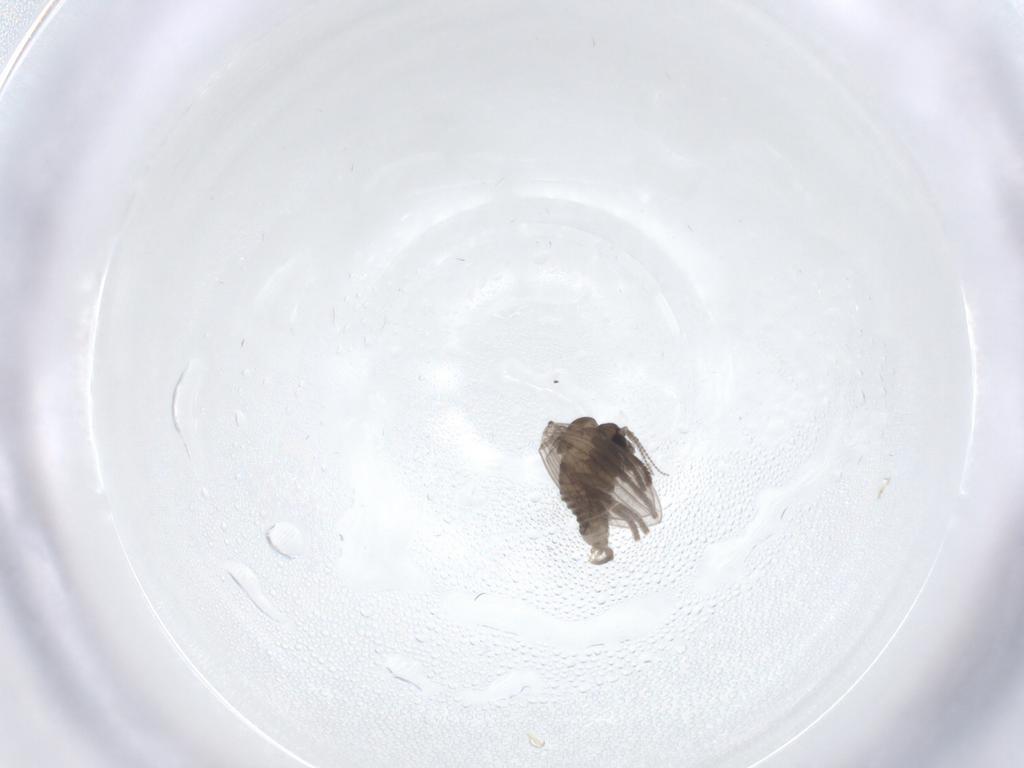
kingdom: Animalia
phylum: Arthropoda
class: Insecta
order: Diptera
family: Psychodidae
